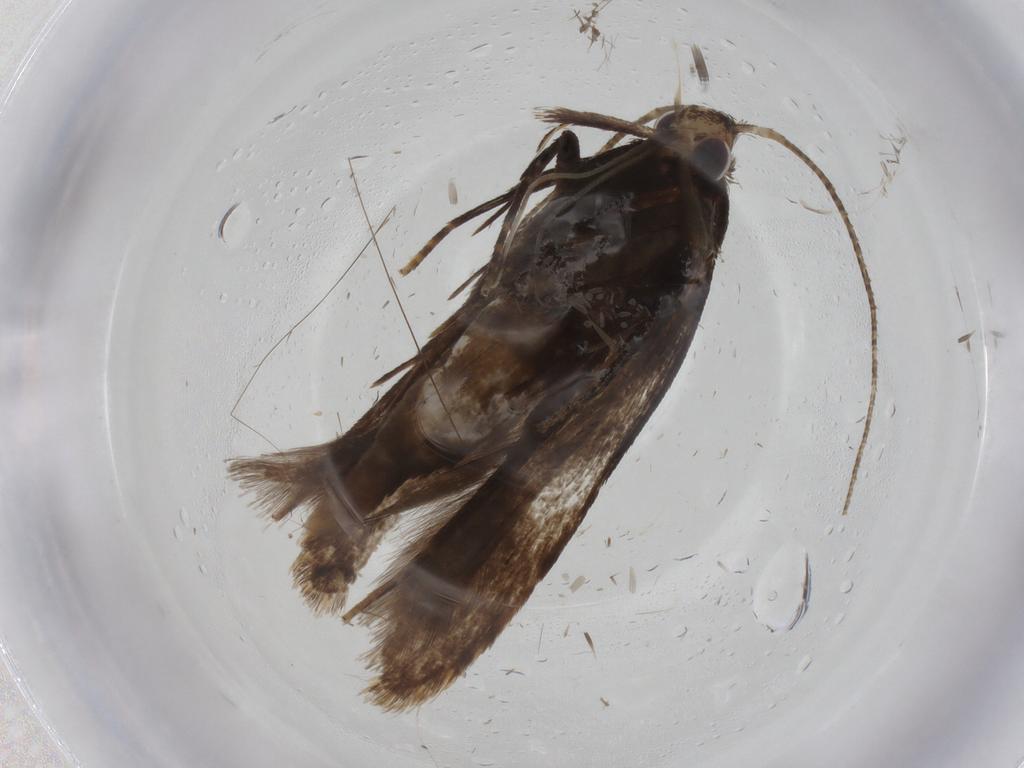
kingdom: Animalia
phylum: Arthropoda
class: Insecta
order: Lepidoptera
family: Gelechiidae
